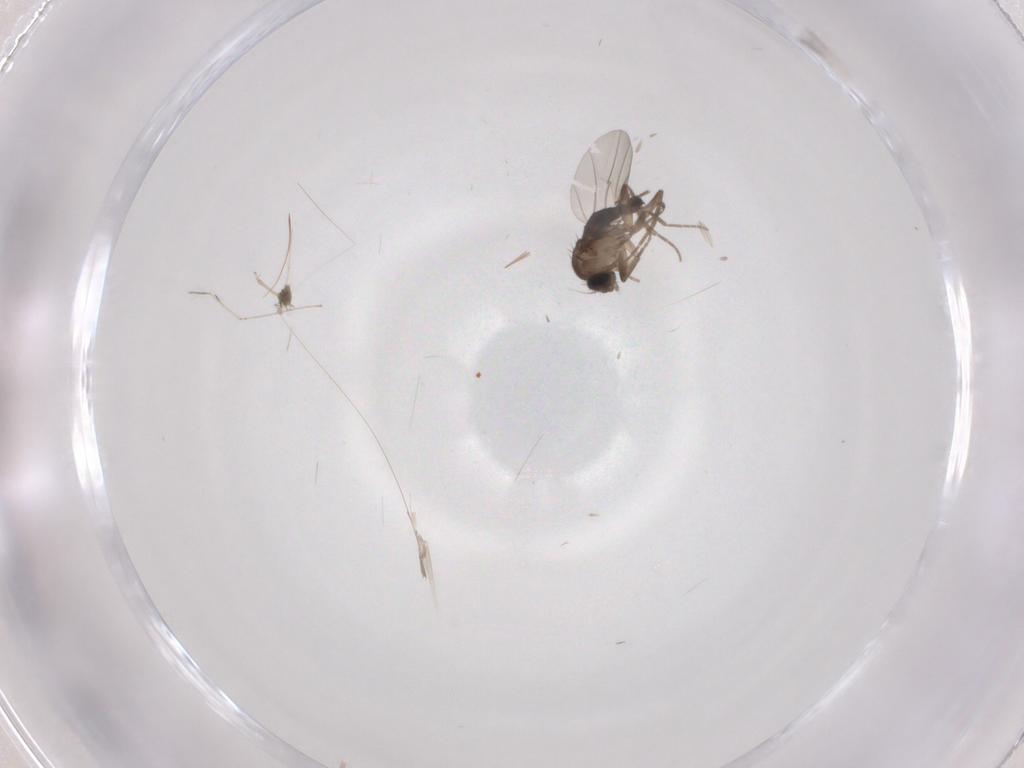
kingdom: Animalia
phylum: Arthropoda
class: Insecta
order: Diptera
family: Phoridae
